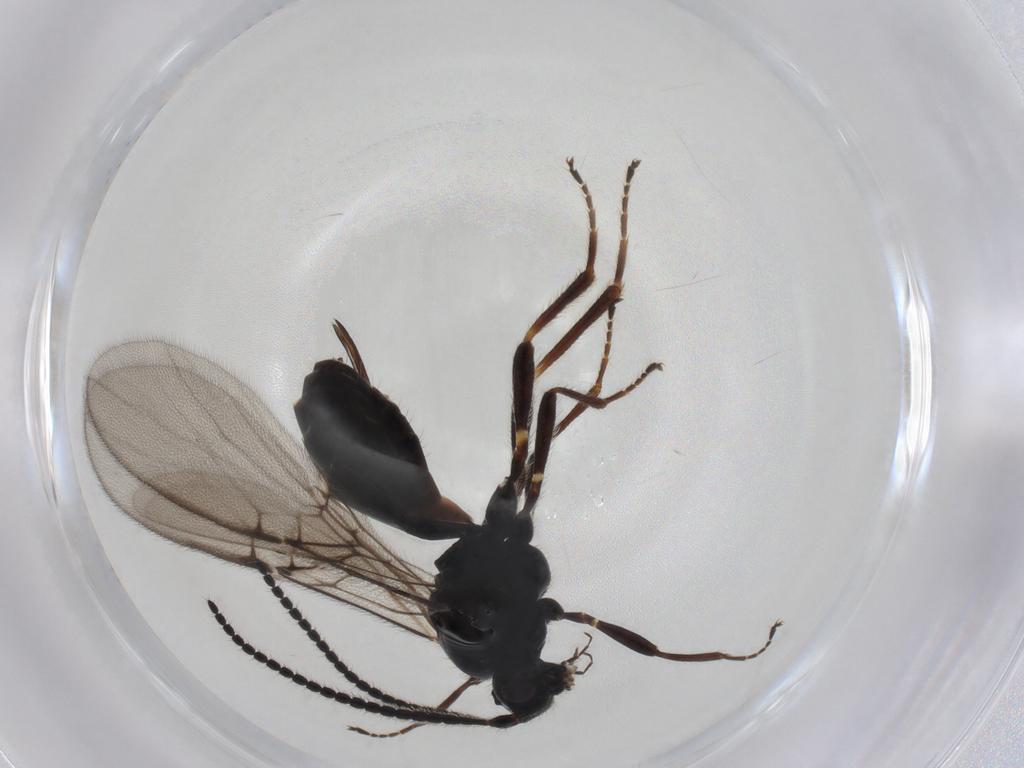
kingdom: Animalia
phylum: Arthropoda
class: Insecta
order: Hymenoptera
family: Braconidae
